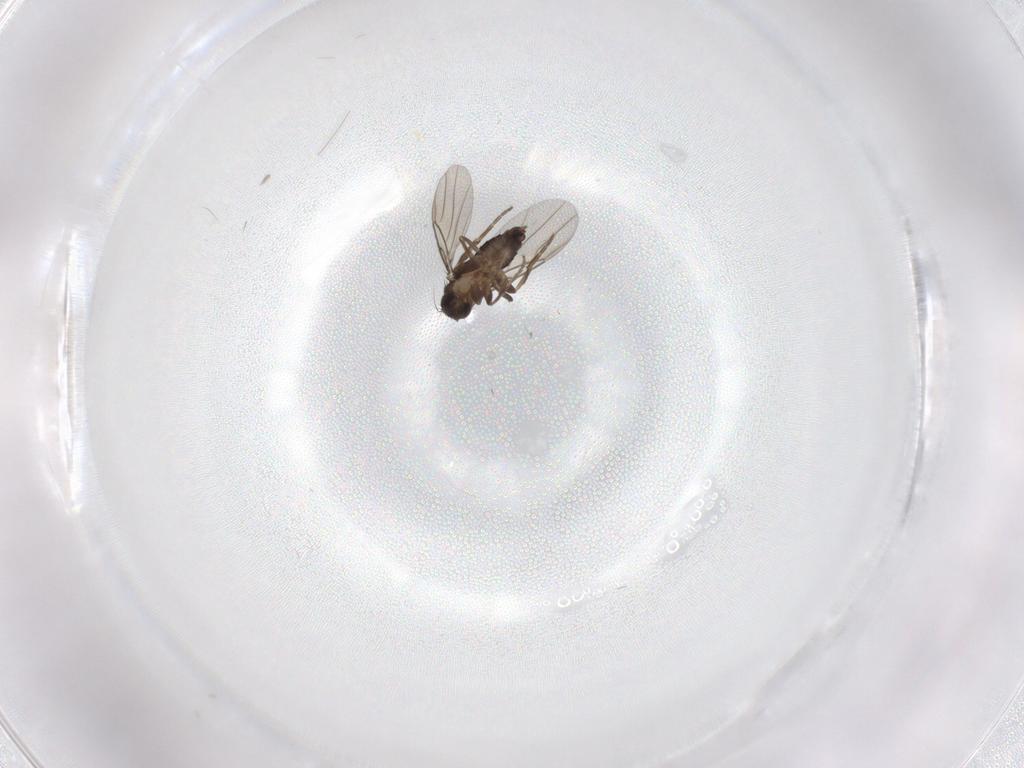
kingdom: Animalia
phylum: Arthropoda
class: Insecta
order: Diptera
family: Phoridae
